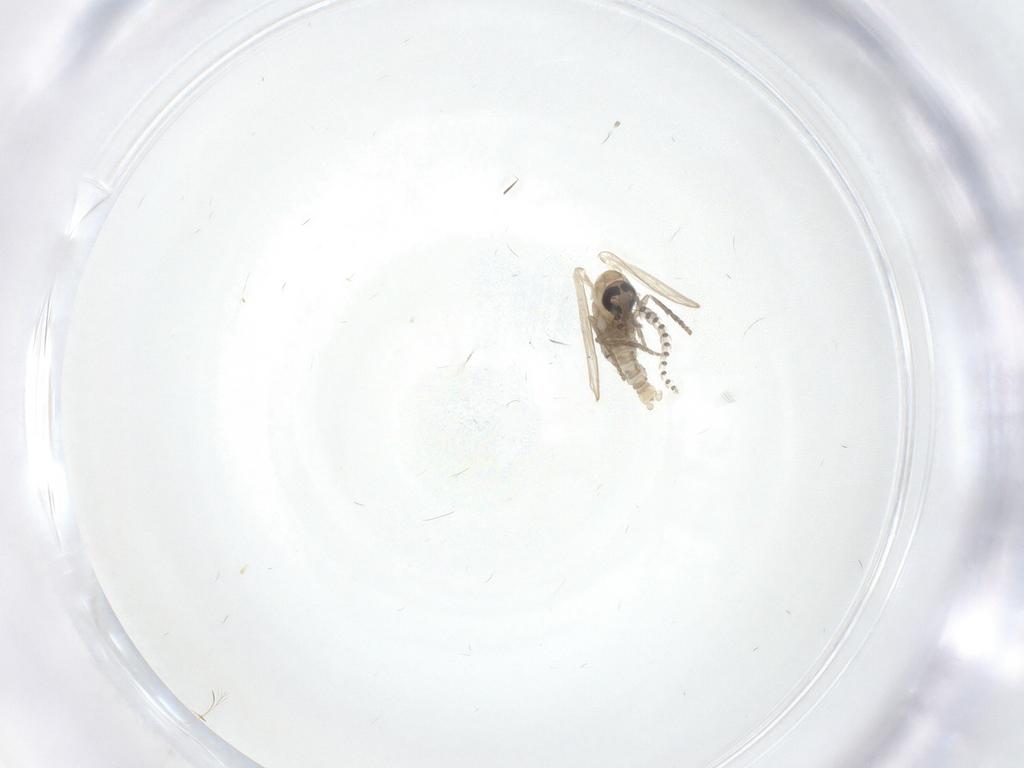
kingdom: Animalia
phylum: Arthropoda
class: Insecta
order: Diptera
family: Psychodidae
